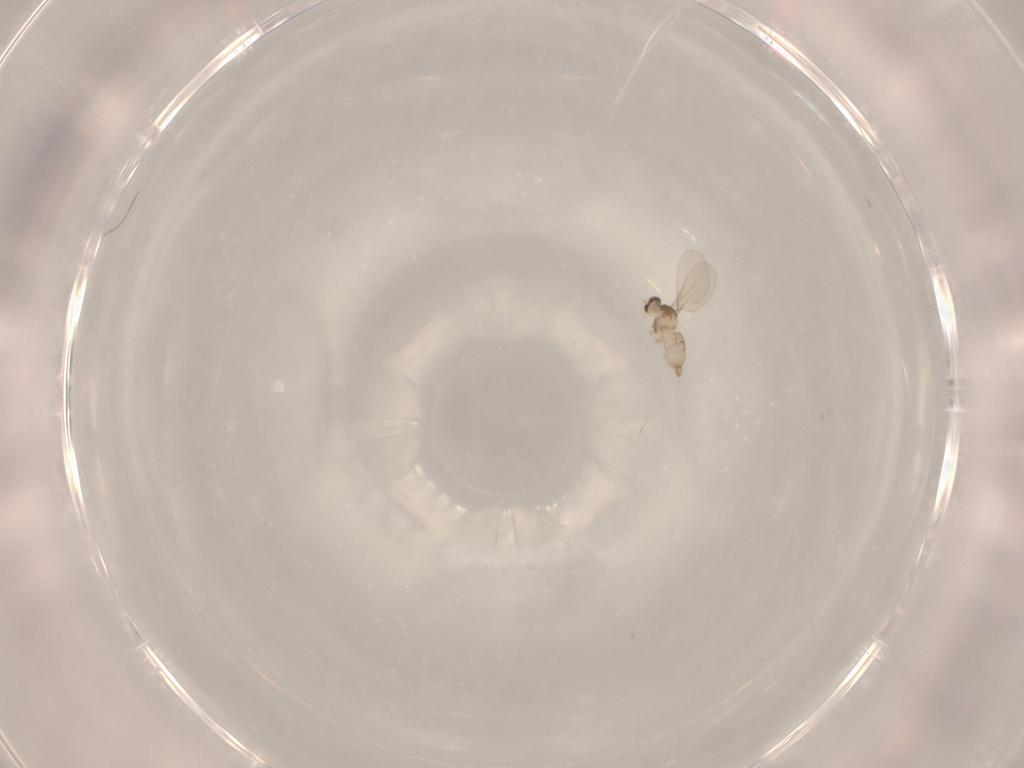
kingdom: Animalia
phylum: Arthropoda
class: Insecta
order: Diptera
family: Cecidomyiidae
